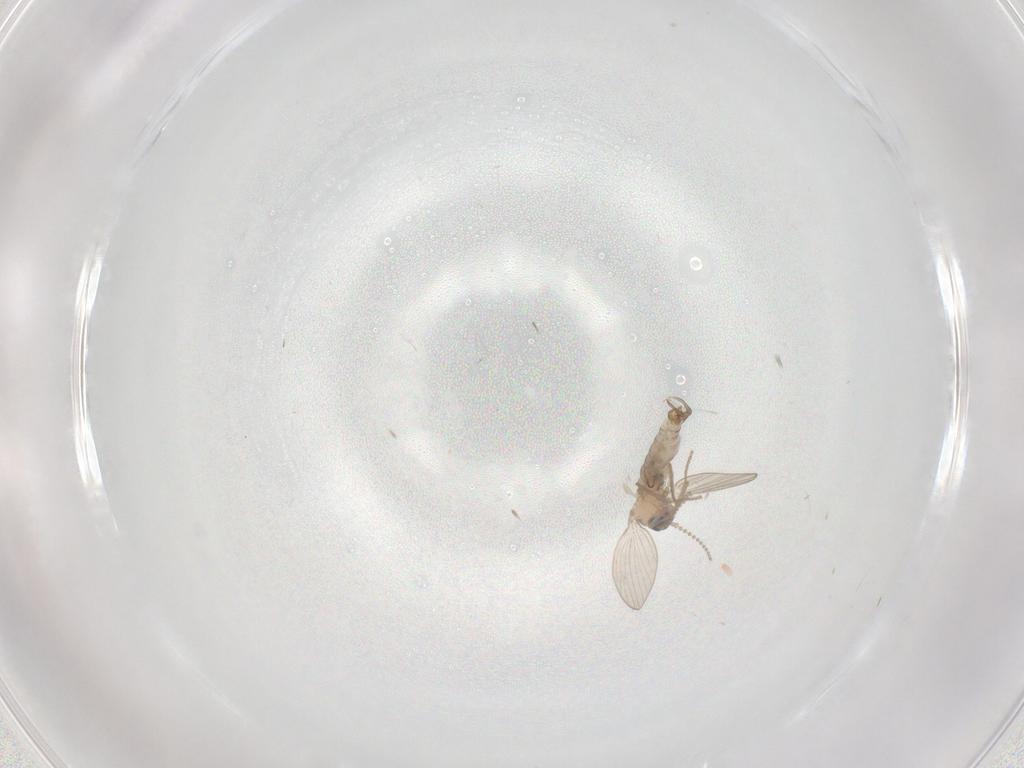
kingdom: Animalia
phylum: Arthropoda
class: Insecta
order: Diptera
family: Psychodidae
